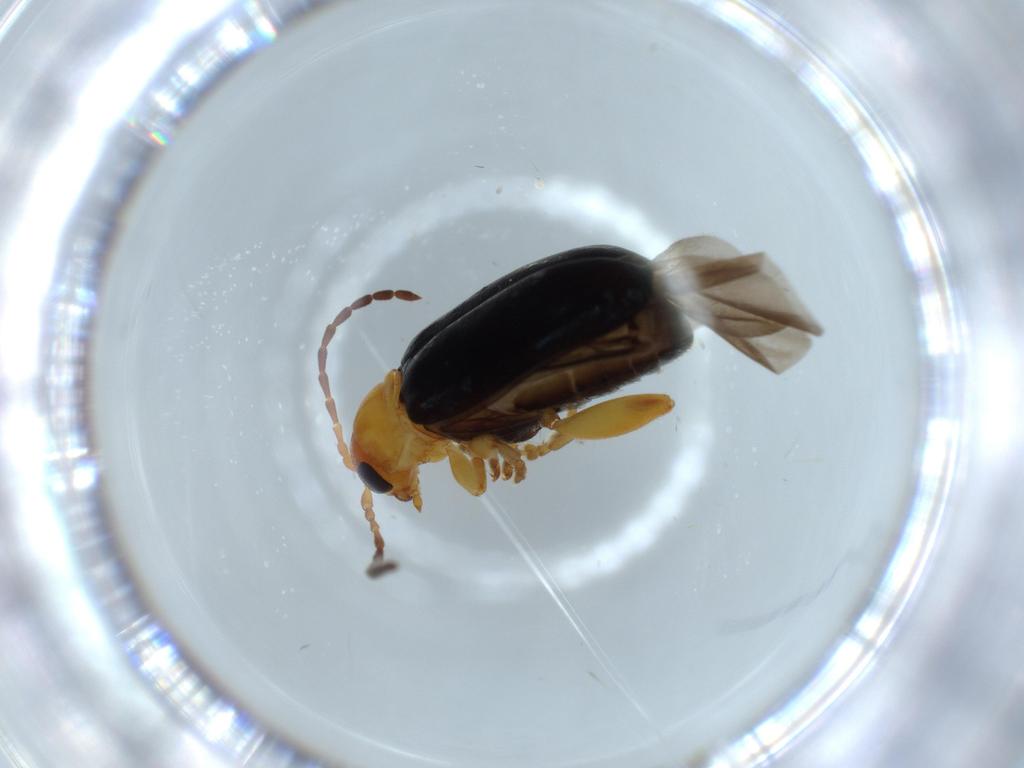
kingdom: Animalia
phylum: Arthropoda
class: Insecta
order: Coleoptera
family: Chrysomelidae
